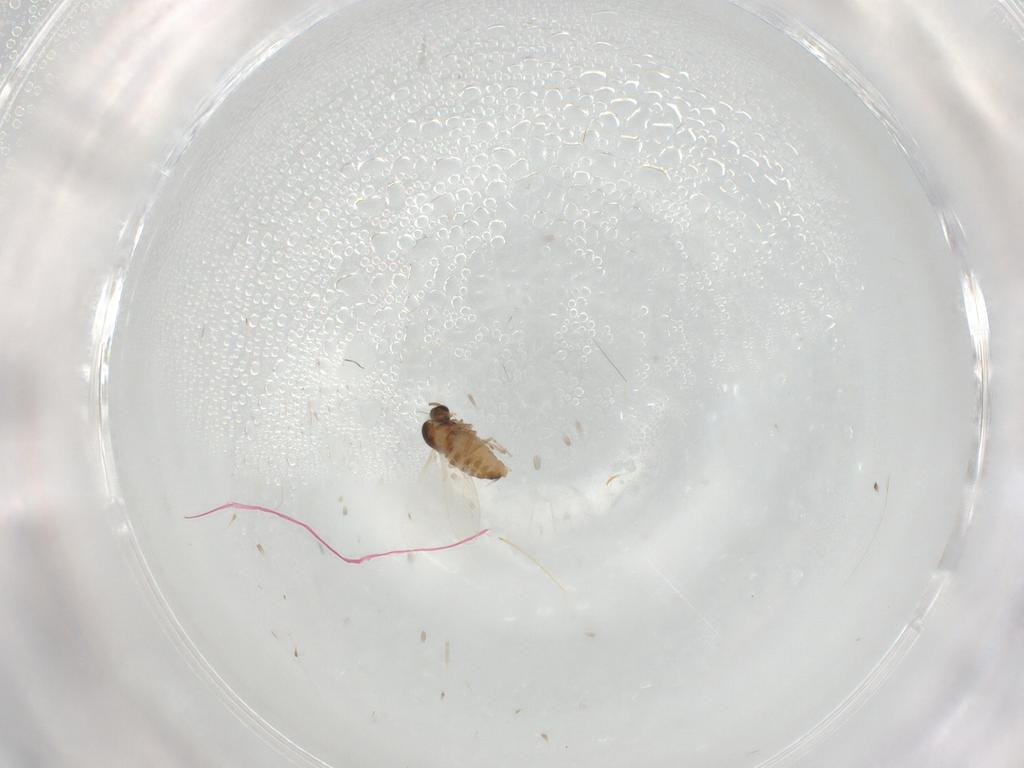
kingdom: Animalia
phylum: Arthropoda
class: Insecta
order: Diptera
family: Cecidomyiidae
